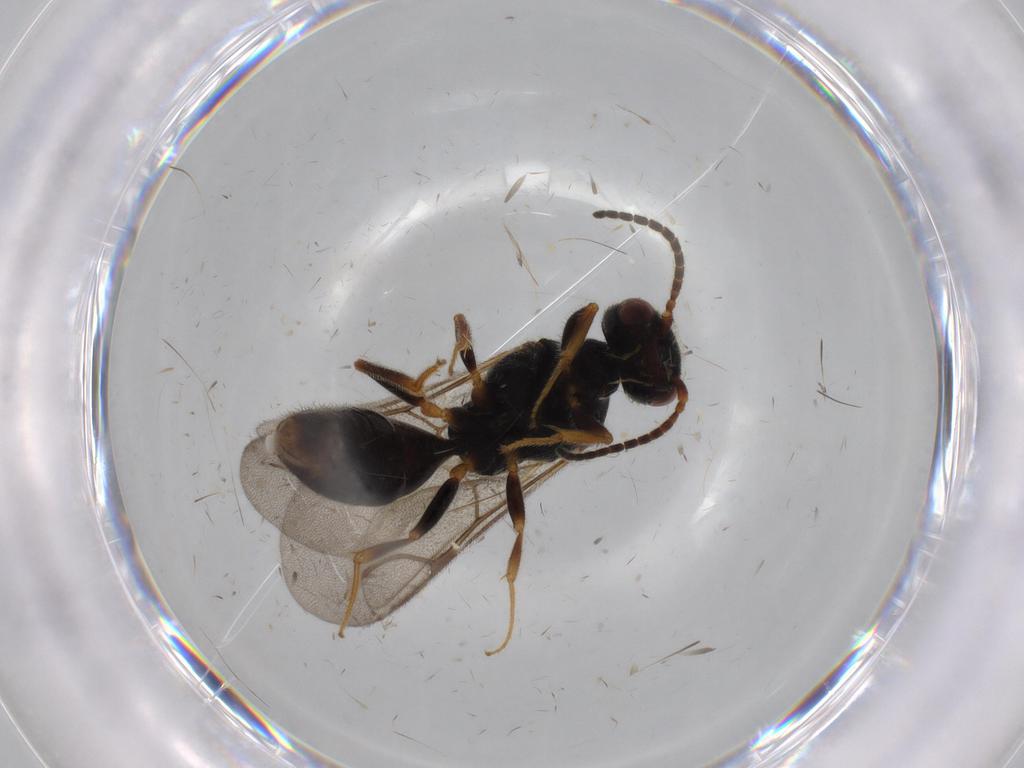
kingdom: Animalia
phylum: Arthropoda
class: Insecta
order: Hymenoptera
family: Bethylidae
